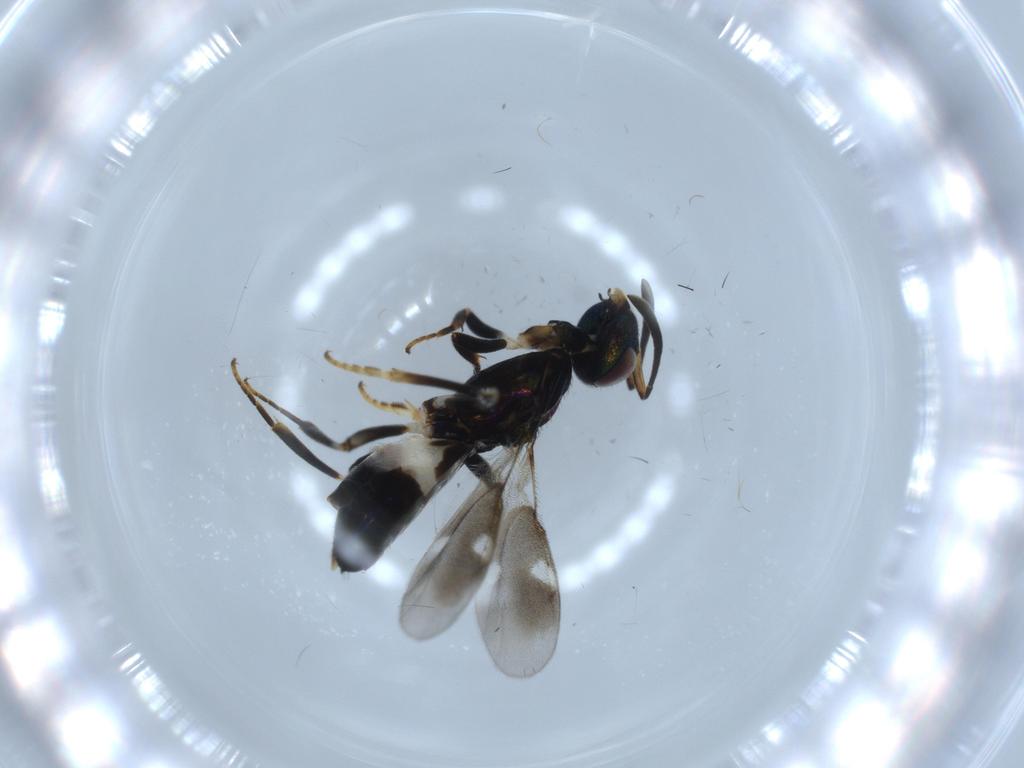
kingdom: Animalia
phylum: Arthropoda
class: Insecta
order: Hymenoptera
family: Eupelmidae
